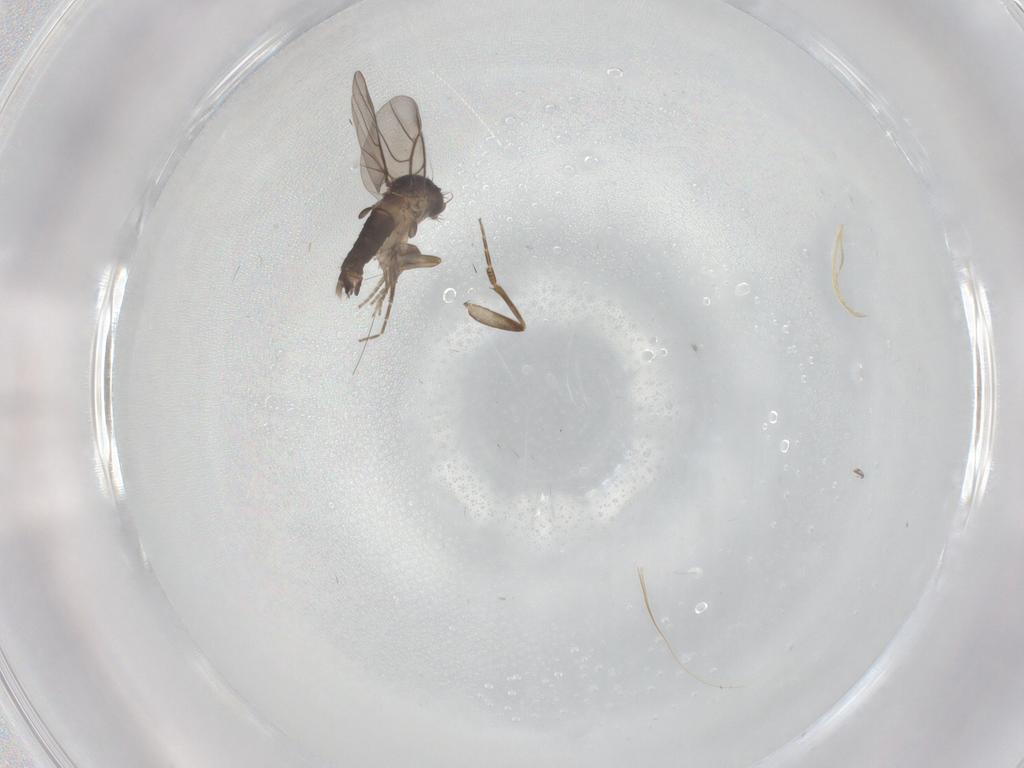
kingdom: Animalia
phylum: Arthropoda
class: Insecta
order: Diptera
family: Phoridae
